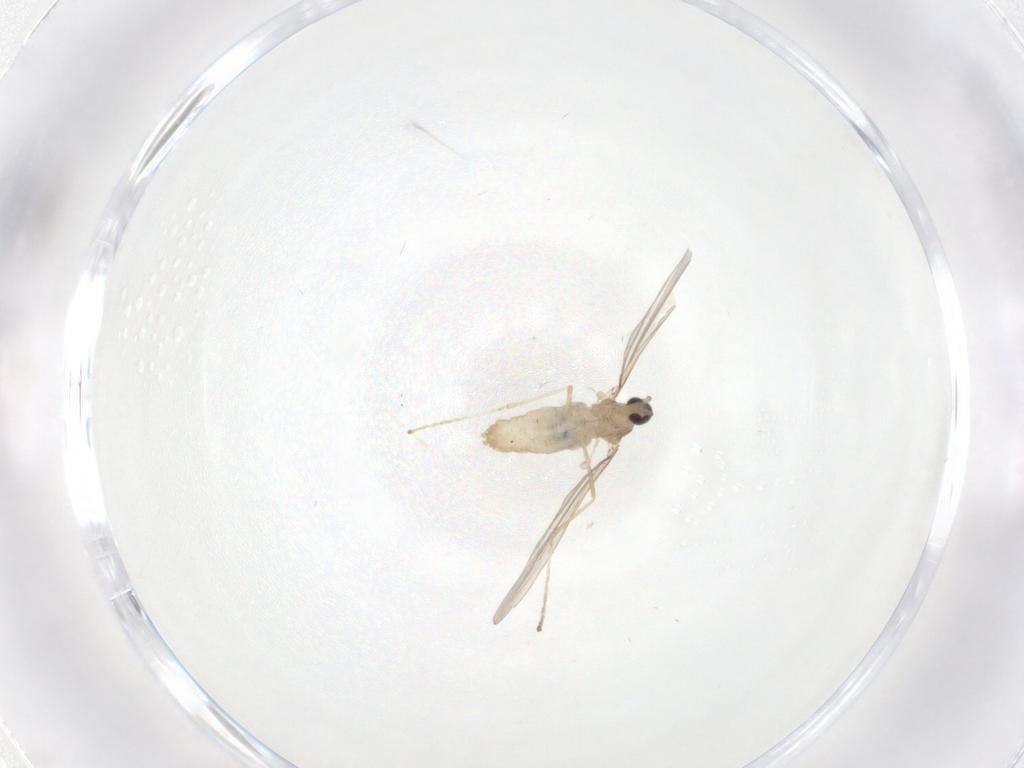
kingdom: Animalia
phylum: Arthropoda
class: Insecta
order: Diptera
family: Cecidomyiidae
